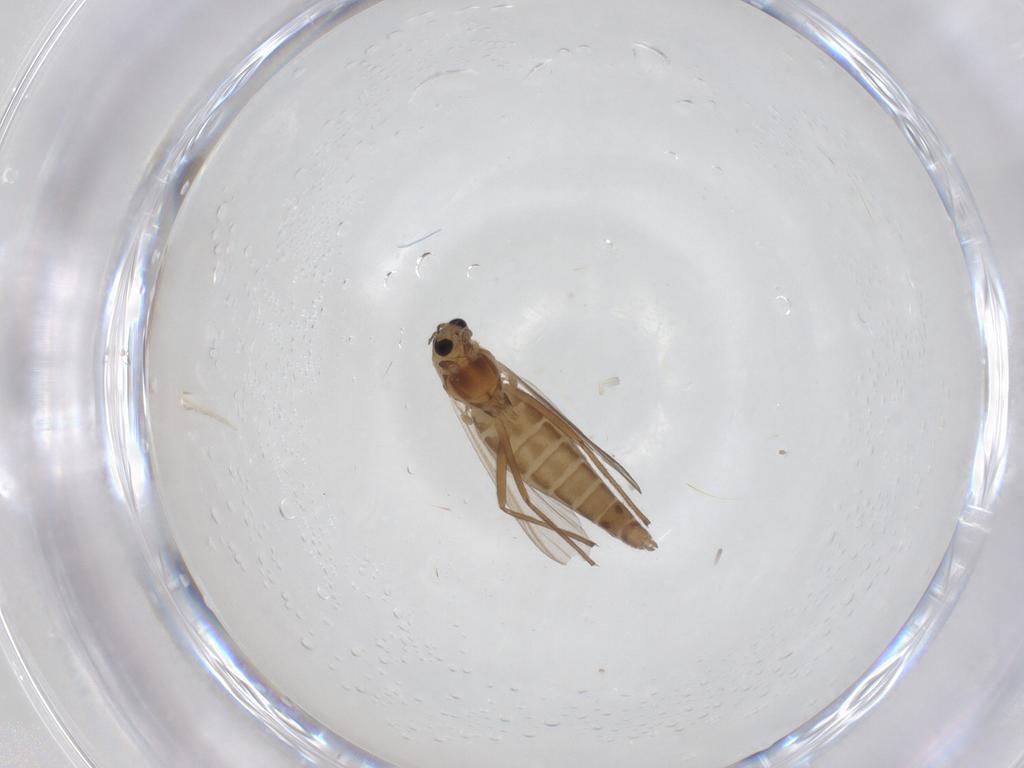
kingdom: Animalia
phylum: Arthropoda
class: Insecta
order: Diptera
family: Chironomidae
